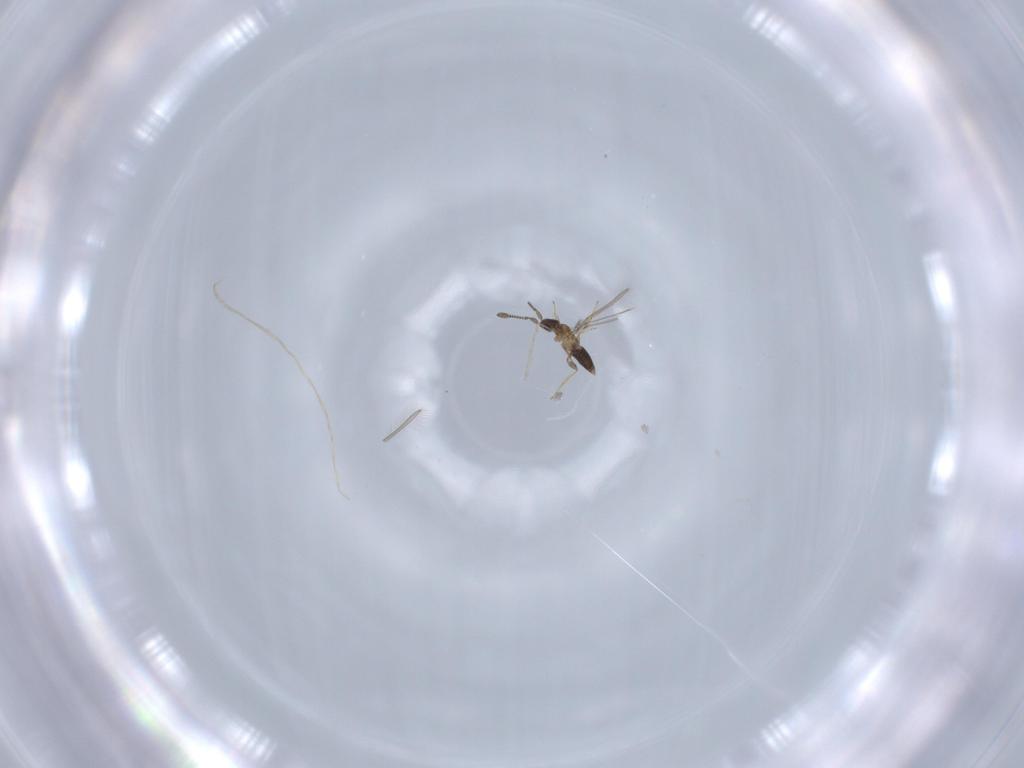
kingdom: Animalia
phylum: Arthropoda
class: Insecta
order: Hymenoptera
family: Mymaridae
